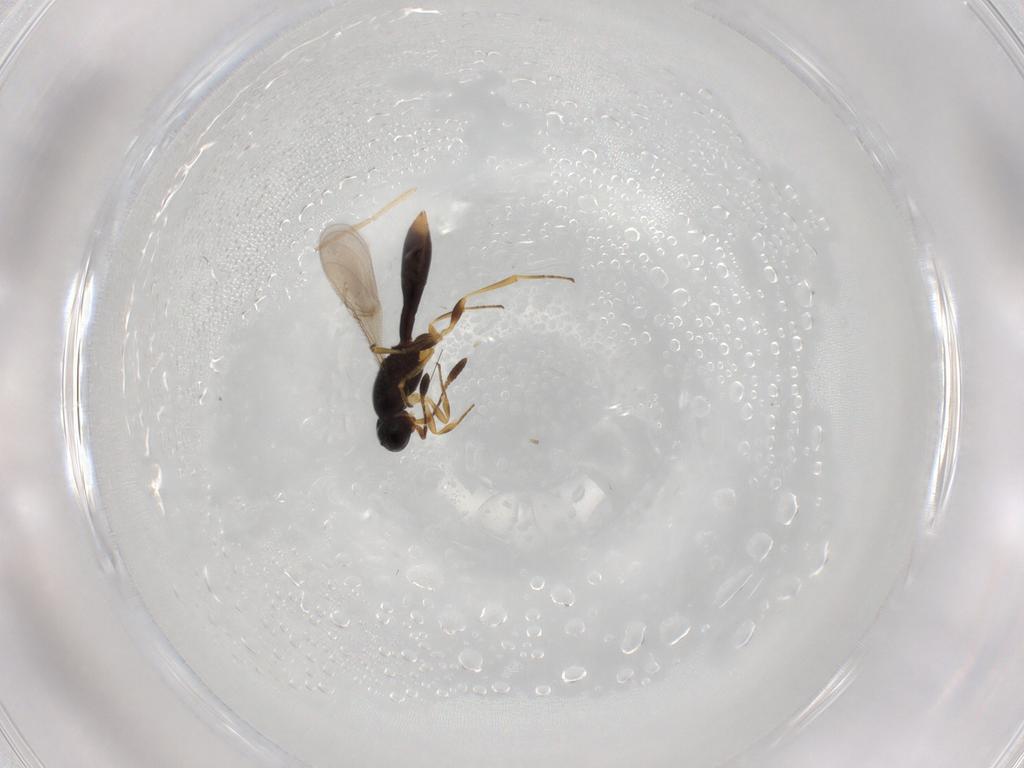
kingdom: Animalia
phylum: Arthropoda
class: Insecta
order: Hymenoptera
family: Scelionidae
